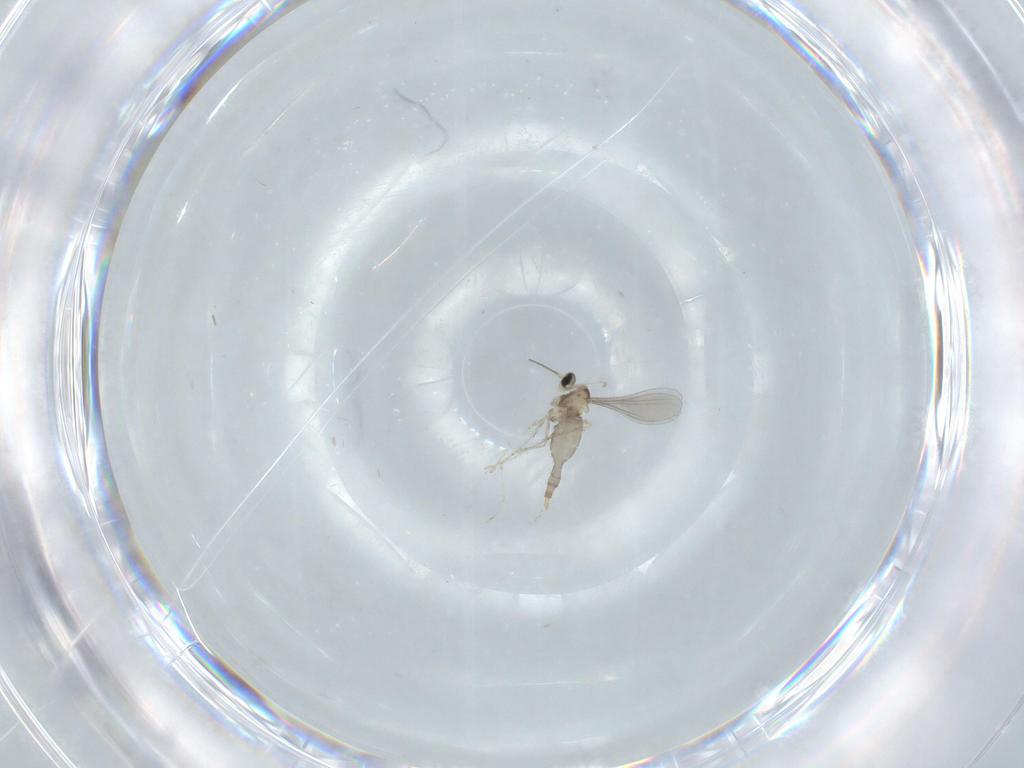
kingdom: Animalia
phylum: Arthropoda
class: Insecta
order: Diptera
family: Cecidomyiidae
